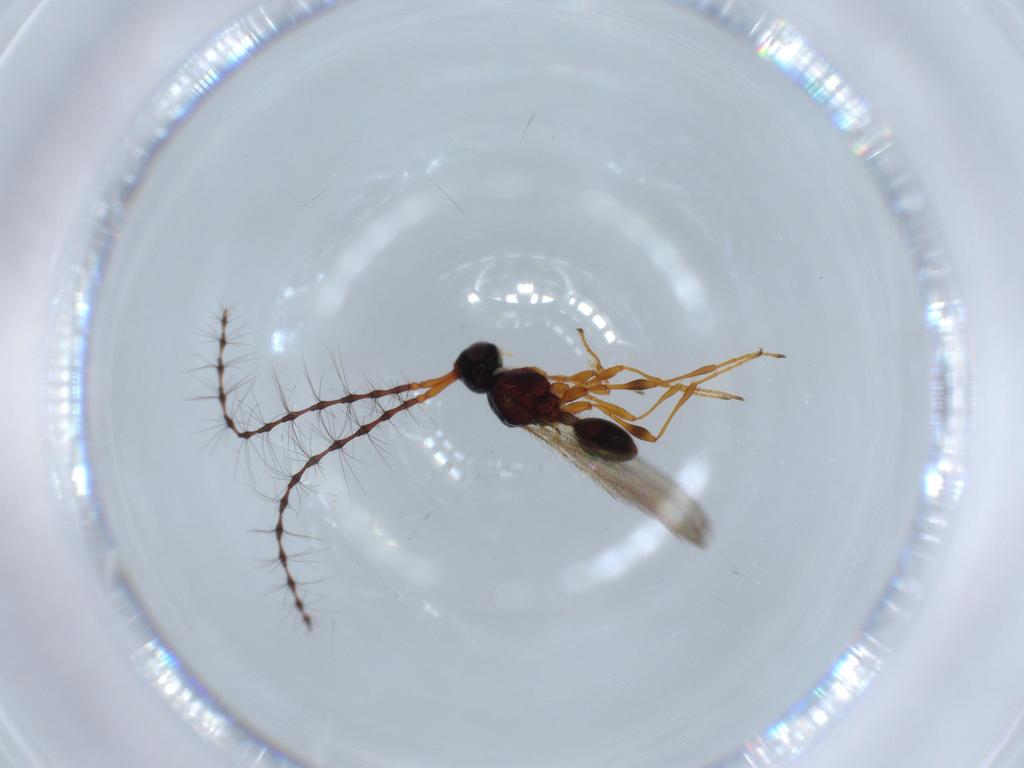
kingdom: Animalia
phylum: Arthropoda
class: Insecta
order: Hymenoptera
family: Diapriidae
